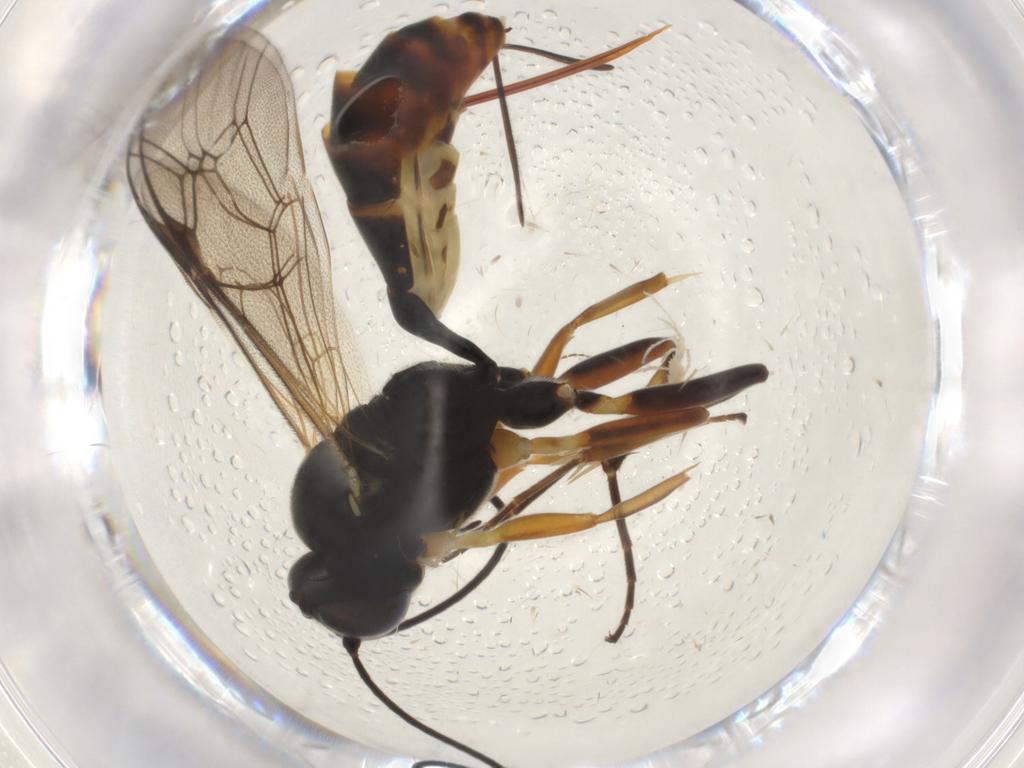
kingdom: Animalia
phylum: Arthropoda
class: Insecta
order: Hymenoptera
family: Ichneumonidae
